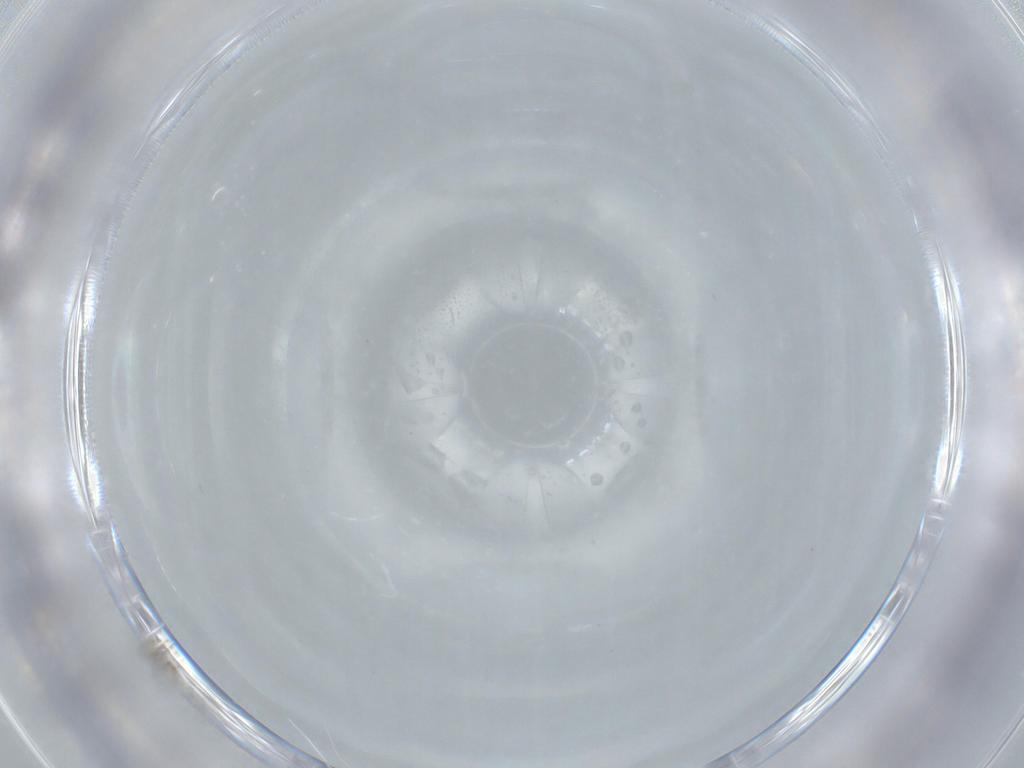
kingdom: Animalia
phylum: Arthropoda
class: Insecta
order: Diptera
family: Cecidomyiidae
